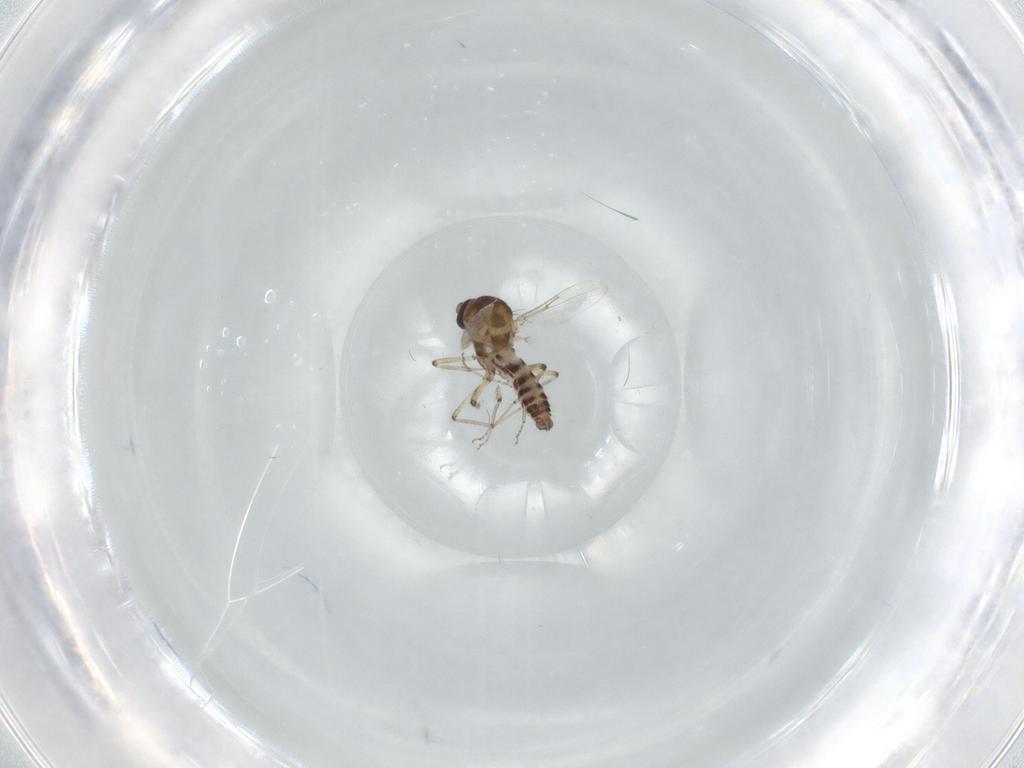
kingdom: Animalia
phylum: Arthropoda
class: Insecta
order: Diptera
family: Ceratopogonidae
